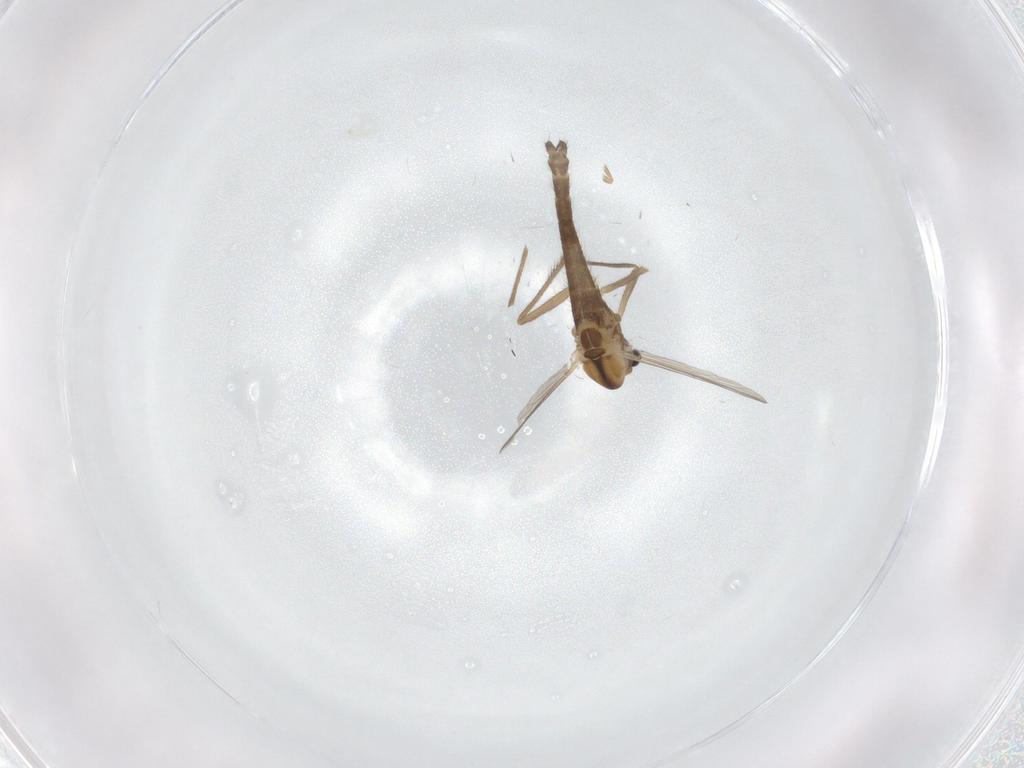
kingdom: Animalia
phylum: Arthropoda
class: Insecta
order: Diptera
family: Chironomidae
